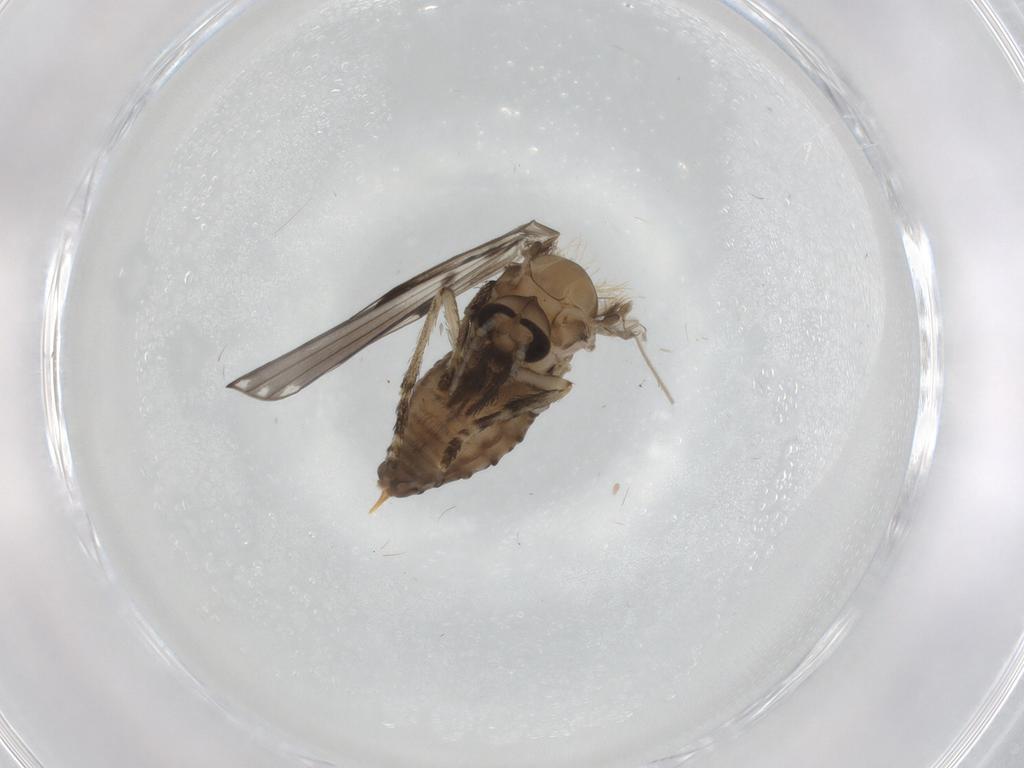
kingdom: Animalia
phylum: Arthropoda
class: Insecta
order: Diptera
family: Psychodidae
